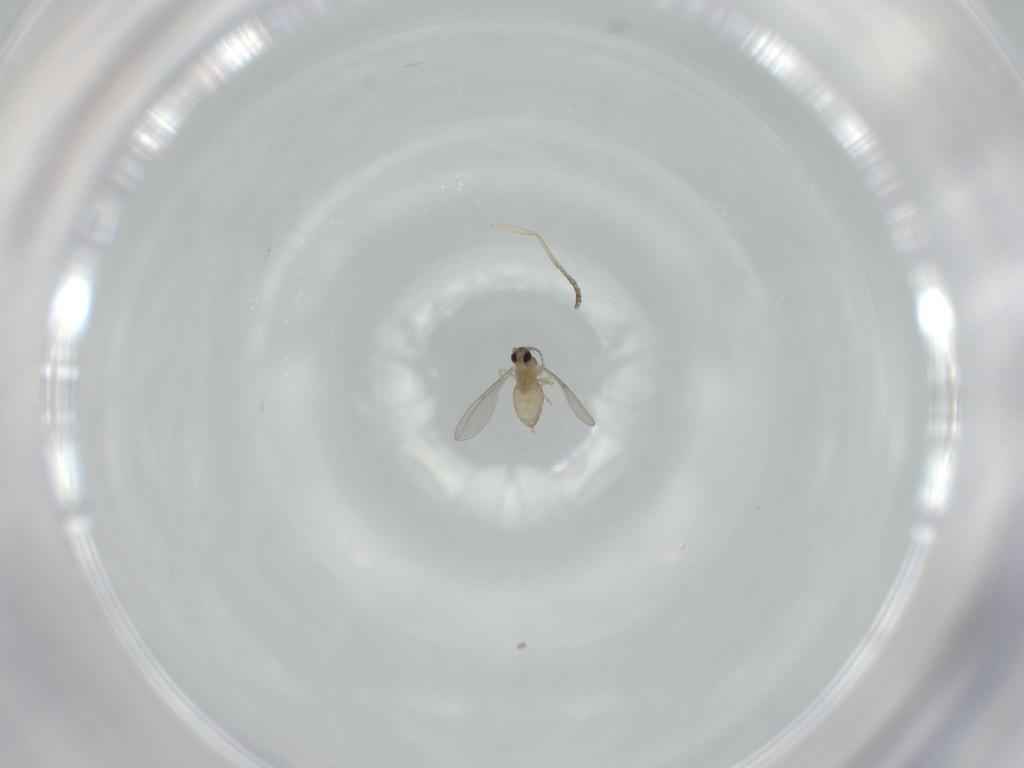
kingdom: Animalia
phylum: Arthropoda
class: Insecta
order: Diptera
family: Cecidomyiidae
